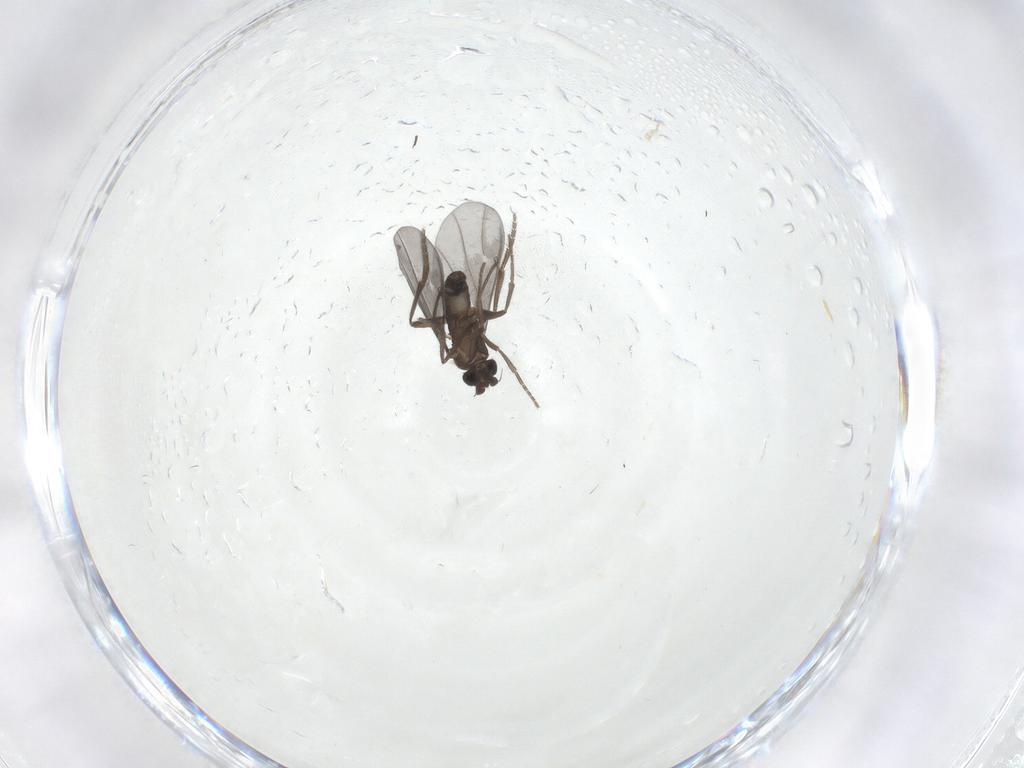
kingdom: Animalia
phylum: Arthropoda
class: Insecta
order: Diptera
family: Phoridae
